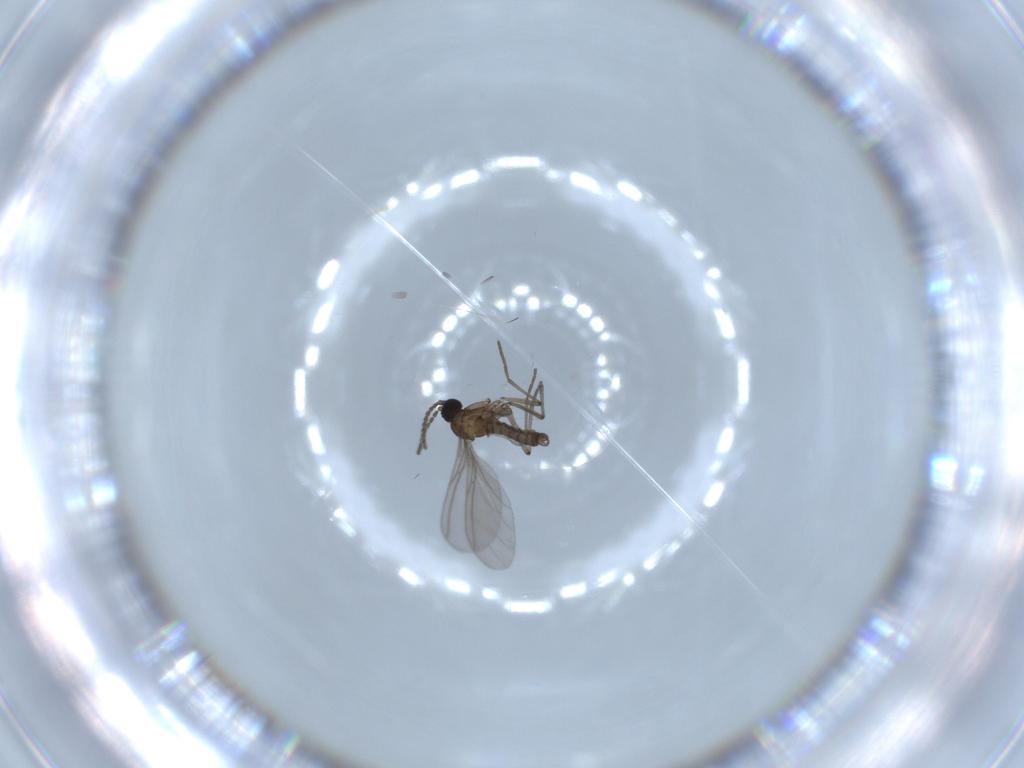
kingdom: Animalia
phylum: Arthropoda
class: Insecta
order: Diptera
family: Sciaridae
